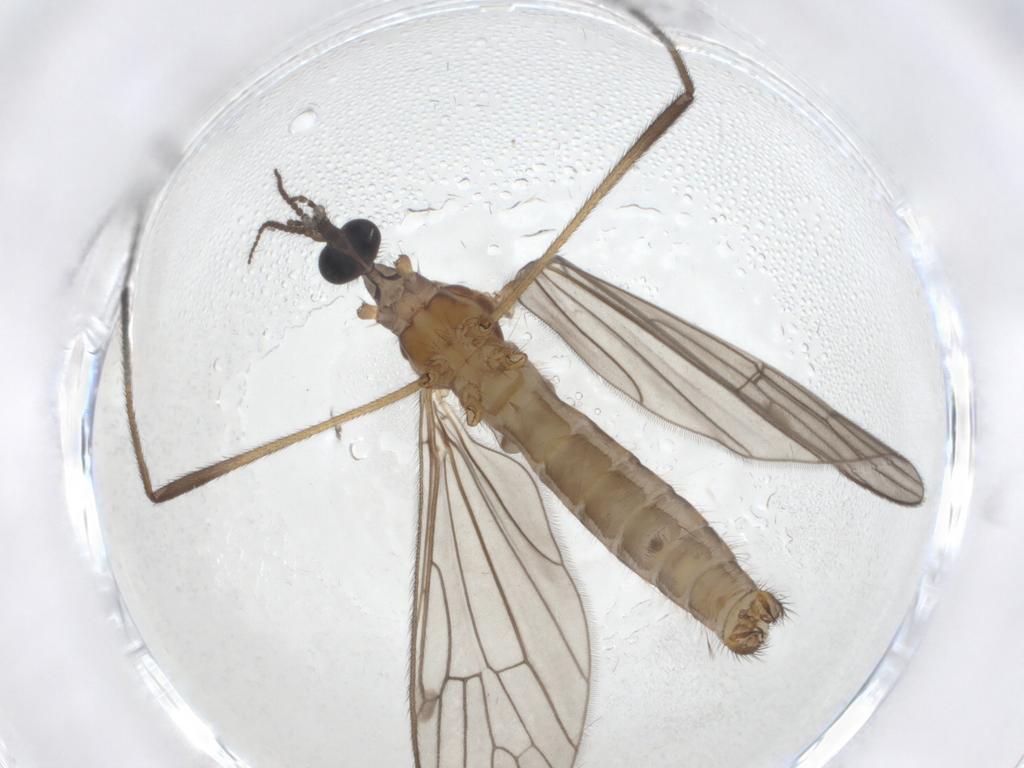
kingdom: Animalia
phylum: Arthropoda
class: Insecta
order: Diptera
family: Limoniidae
